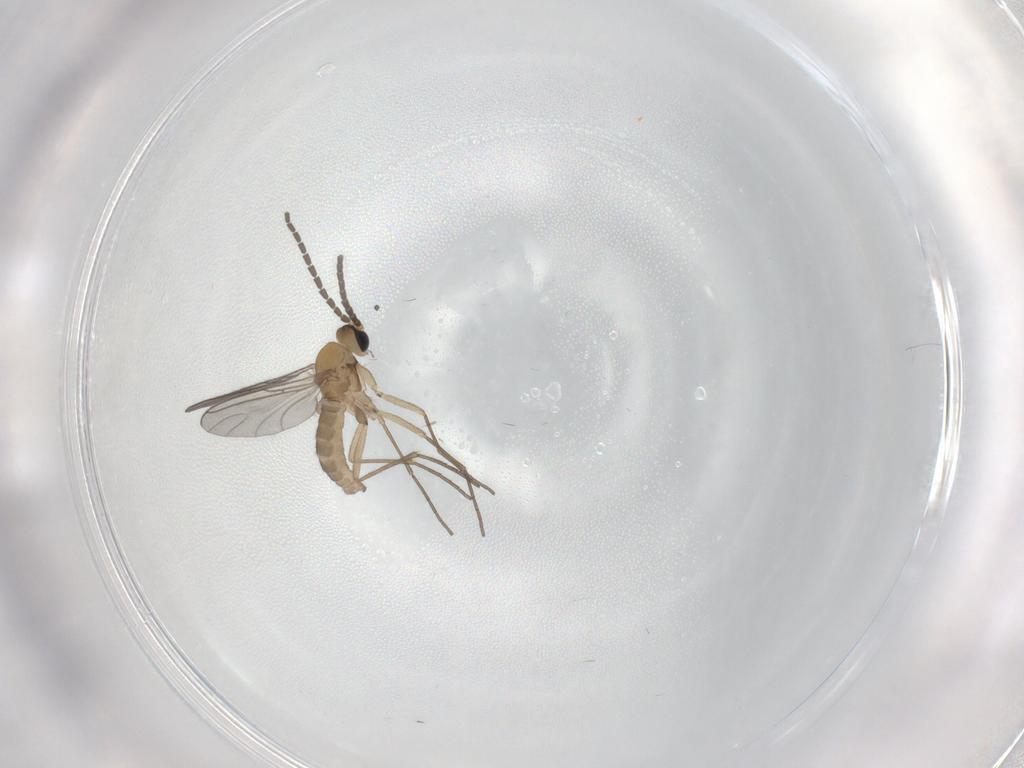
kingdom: Animalia
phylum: Arthropoda
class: Insecta
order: Diptera
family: Sciaridae
